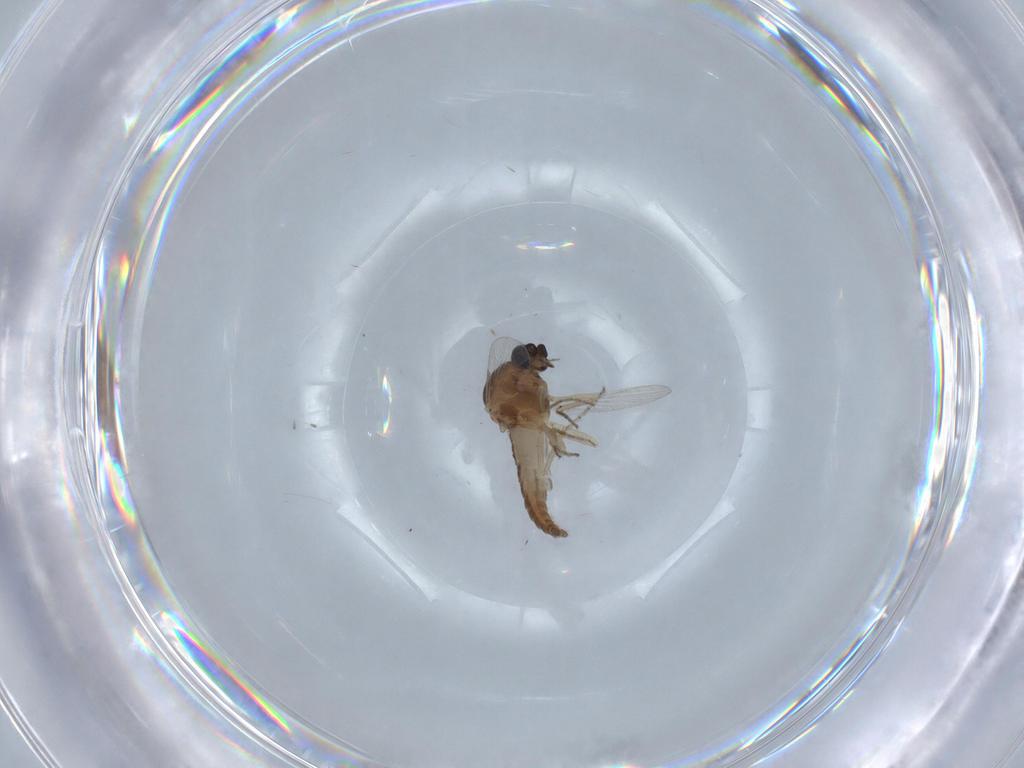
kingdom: Animalia
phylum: Arthropoda
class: Insecta
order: Diptera
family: Ceratopogonidae
